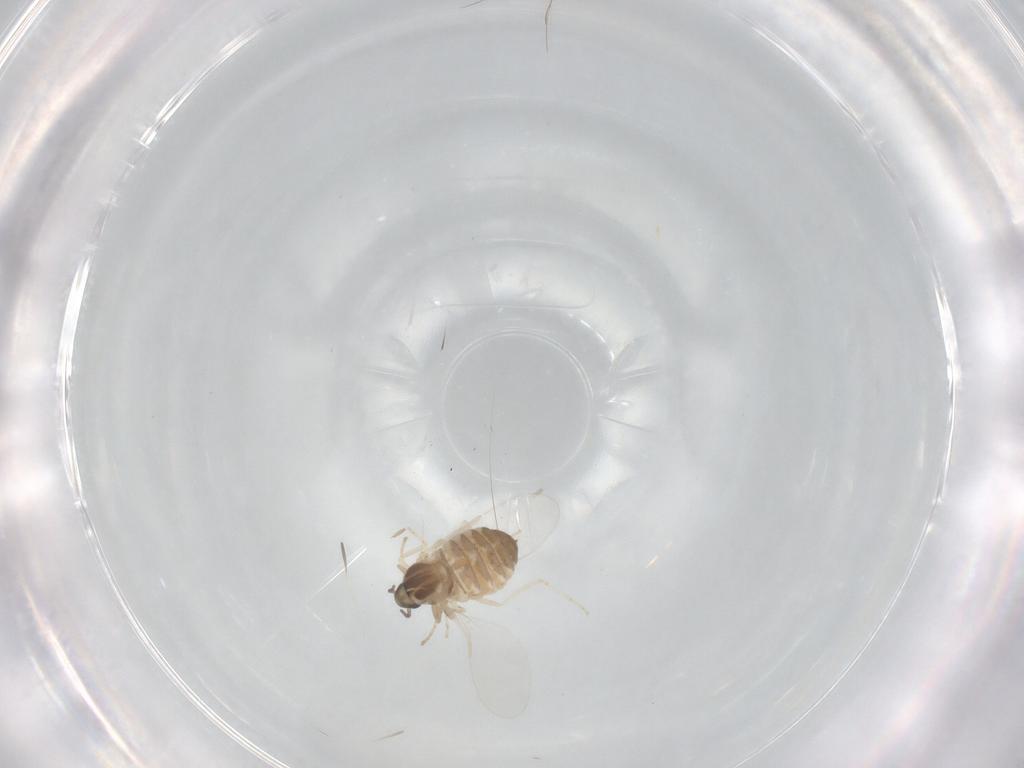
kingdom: Animalia
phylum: Arthropoda
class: Insecta
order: Diptera
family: Cecidomyiidae
